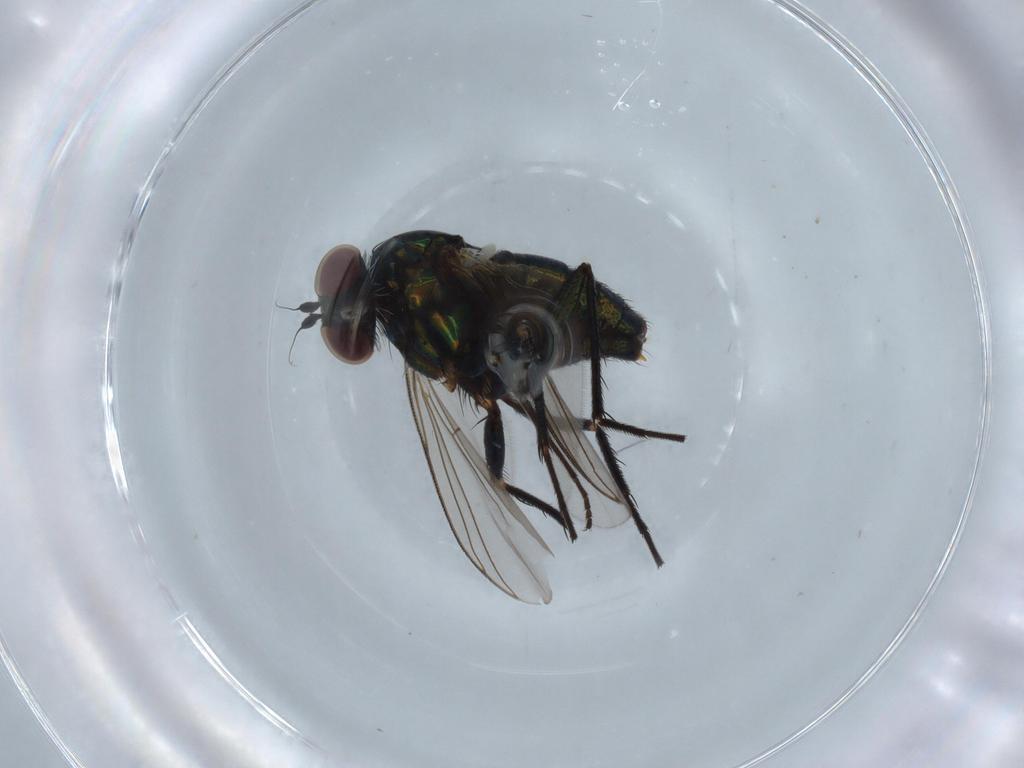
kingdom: Animalia
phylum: Arthropoda
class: Insecta
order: Diptera
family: Dolichopodidae
